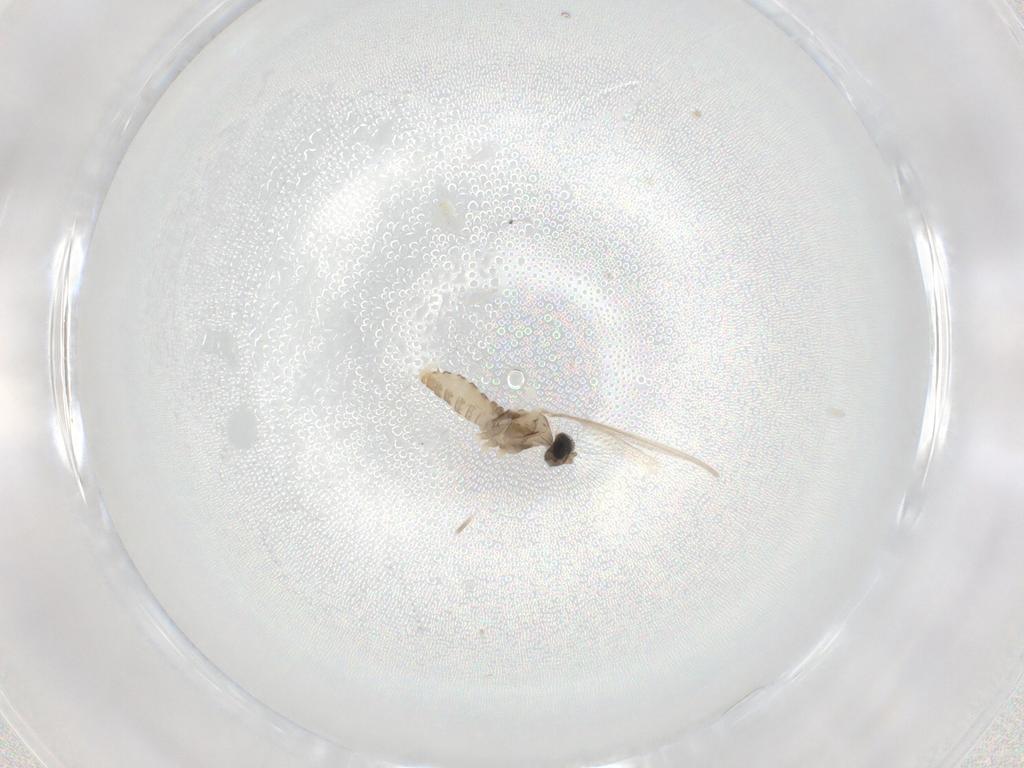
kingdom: Animalia
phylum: Arthropoda
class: Insecta
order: Diptera
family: Cecidomyiidae
